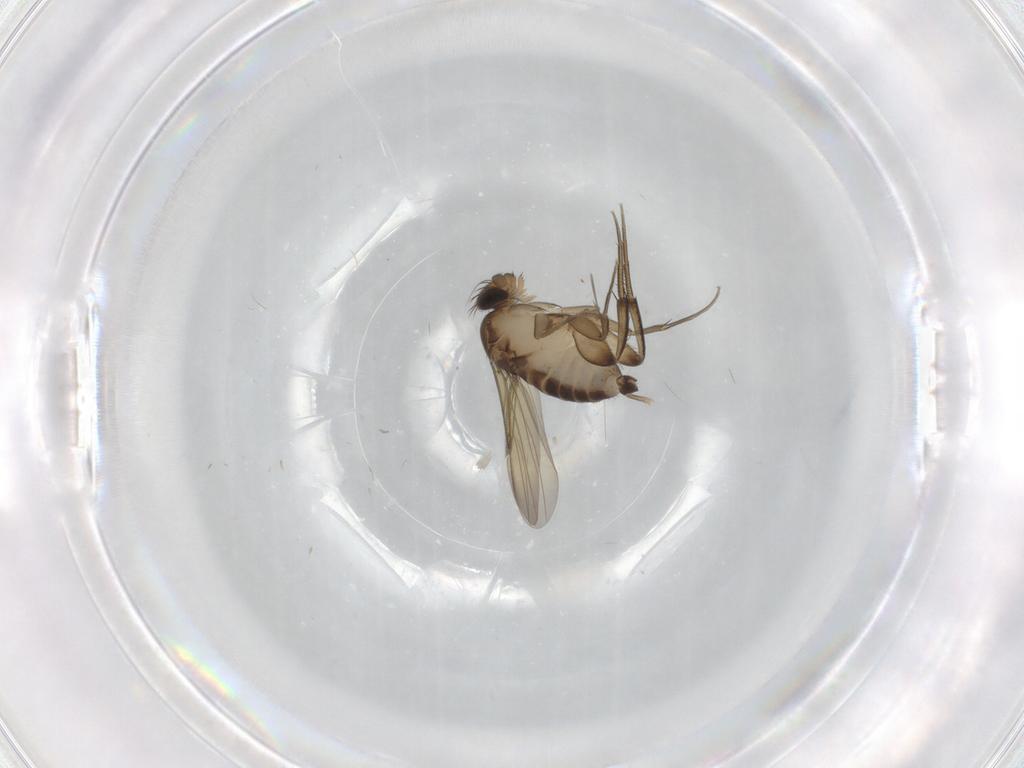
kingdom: Animalia
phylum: Arthropoda
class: Insecta
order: Diptera
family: Phoridae
